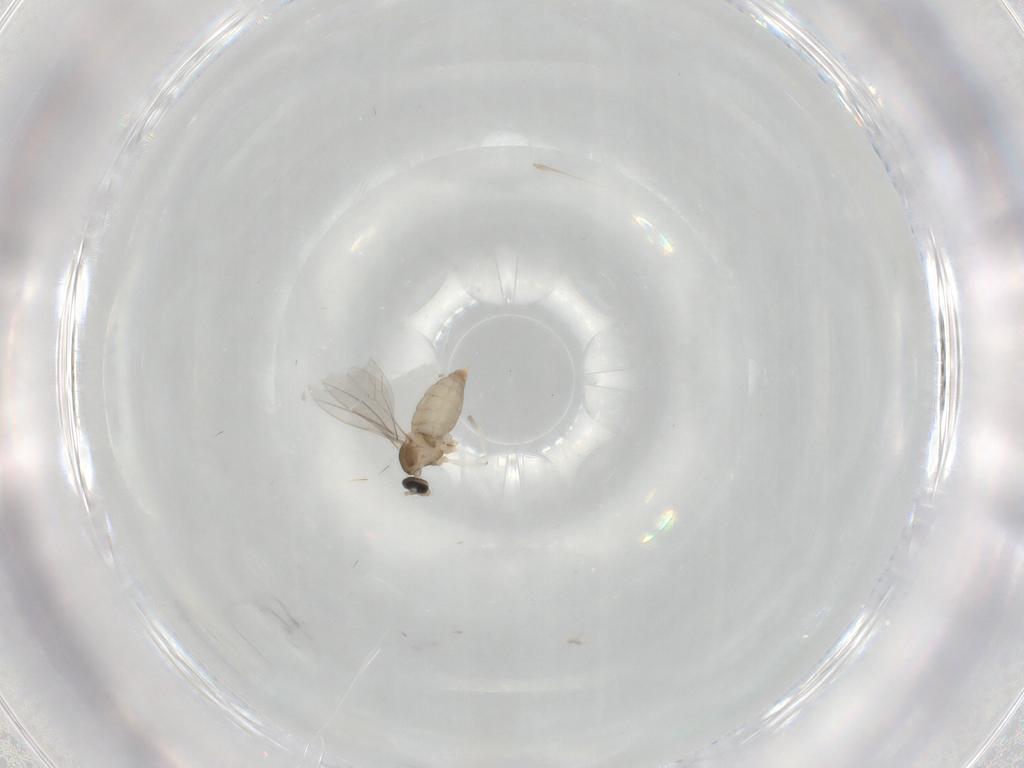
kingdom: Animalia
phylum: Arthropoda
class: Insecta
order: Diptera
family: Cecidomyiidae
